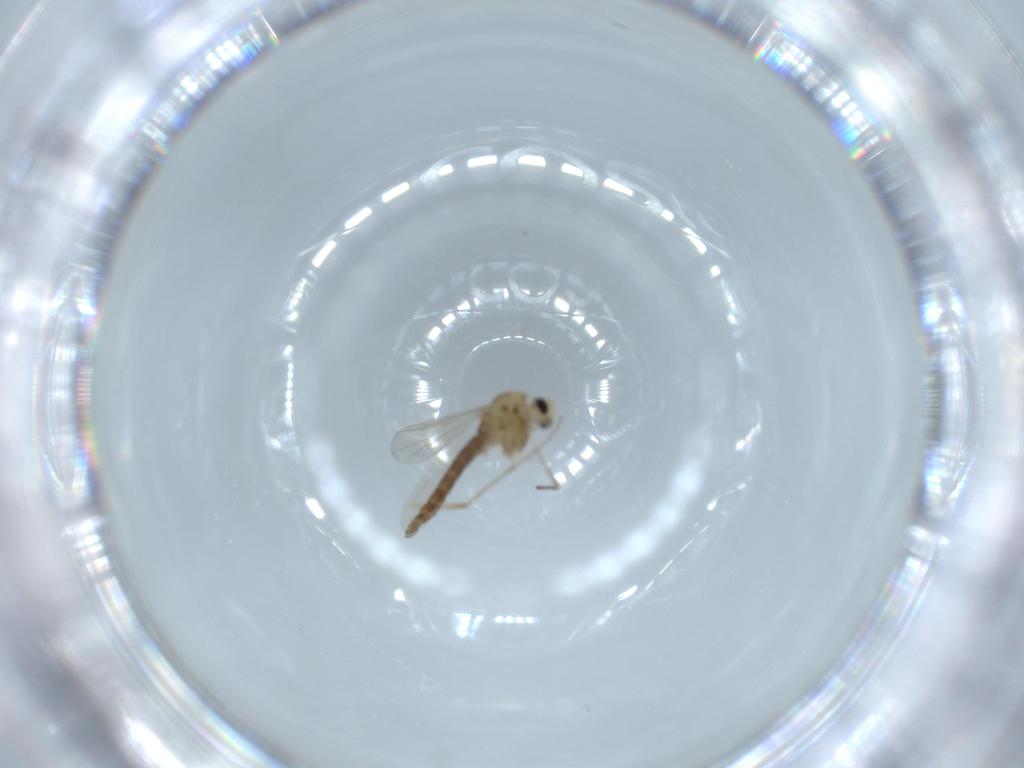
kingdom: Animalia
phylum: Arthropoda
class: Insecta
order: Diptera
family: Chironomidae
